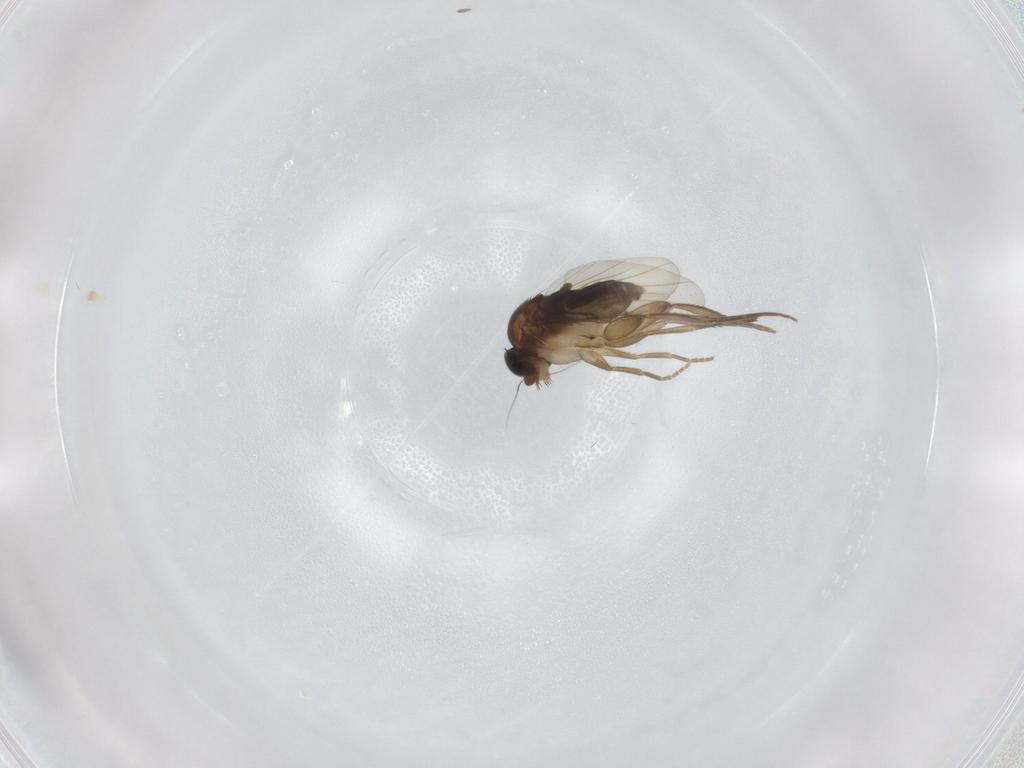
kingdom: Animalia
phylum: Arthropoda
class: Insecta
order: Diptera
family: Phoridae
